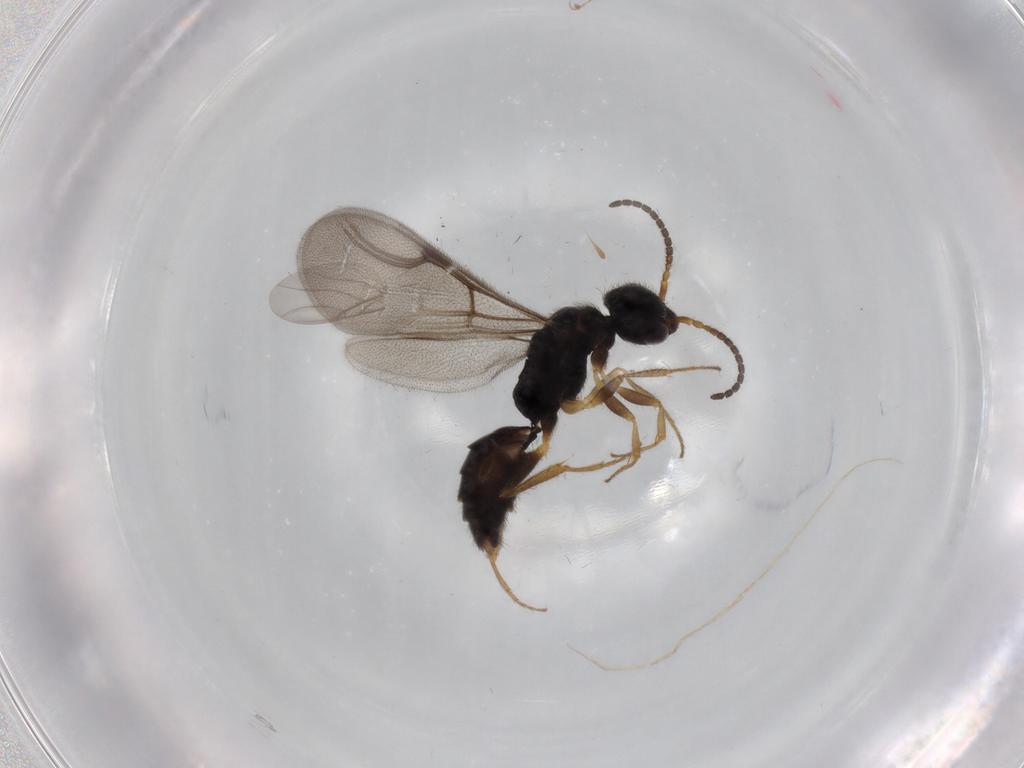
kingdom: Animalia
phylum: Arthropoda
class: Insecta
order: Hymenoptera
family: Bethylidae
